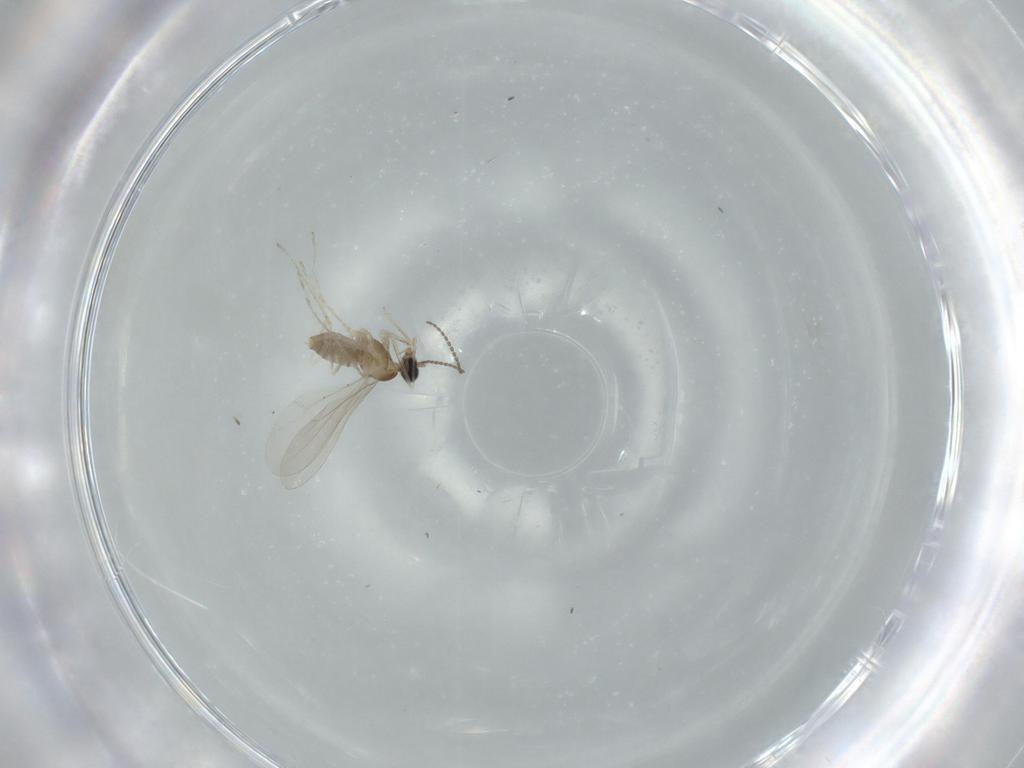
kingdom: Animalia
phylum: Arthropoda
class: Insecta
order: Diptera
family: Cecidomyiidae
